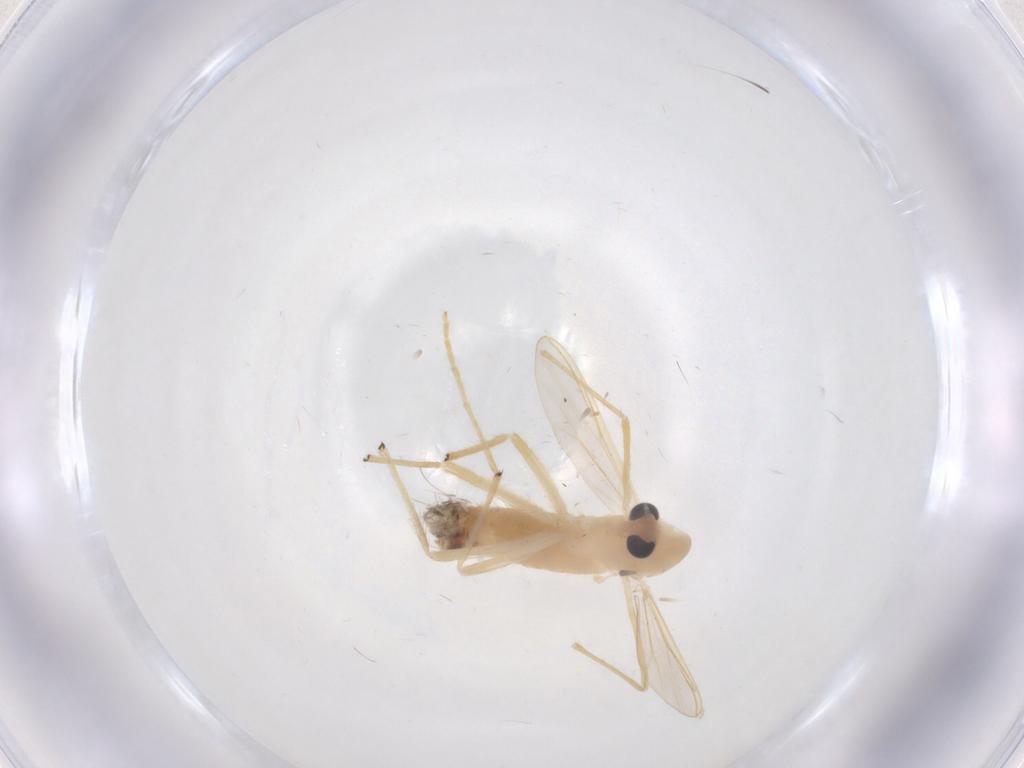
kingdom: Animalia
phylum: Arthropoda
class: Insecta
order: Diptera
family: Chironomidae
